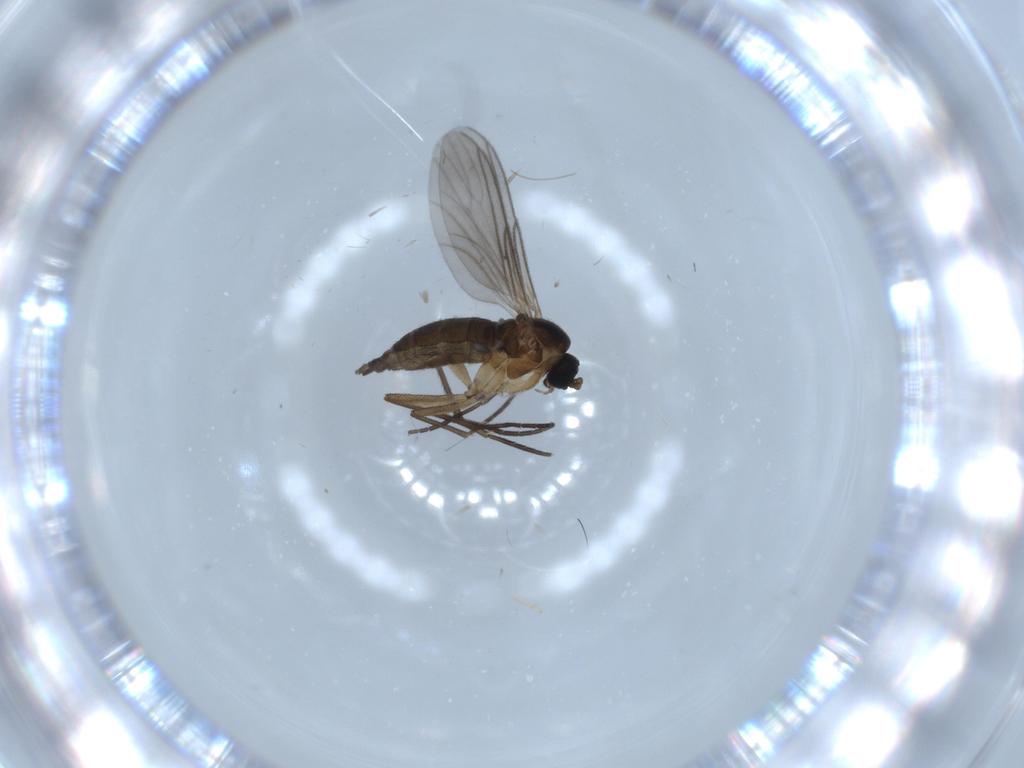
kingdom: Animalia
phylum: Arthropoda
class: Insecta
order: Diptera
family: Sciaridae
